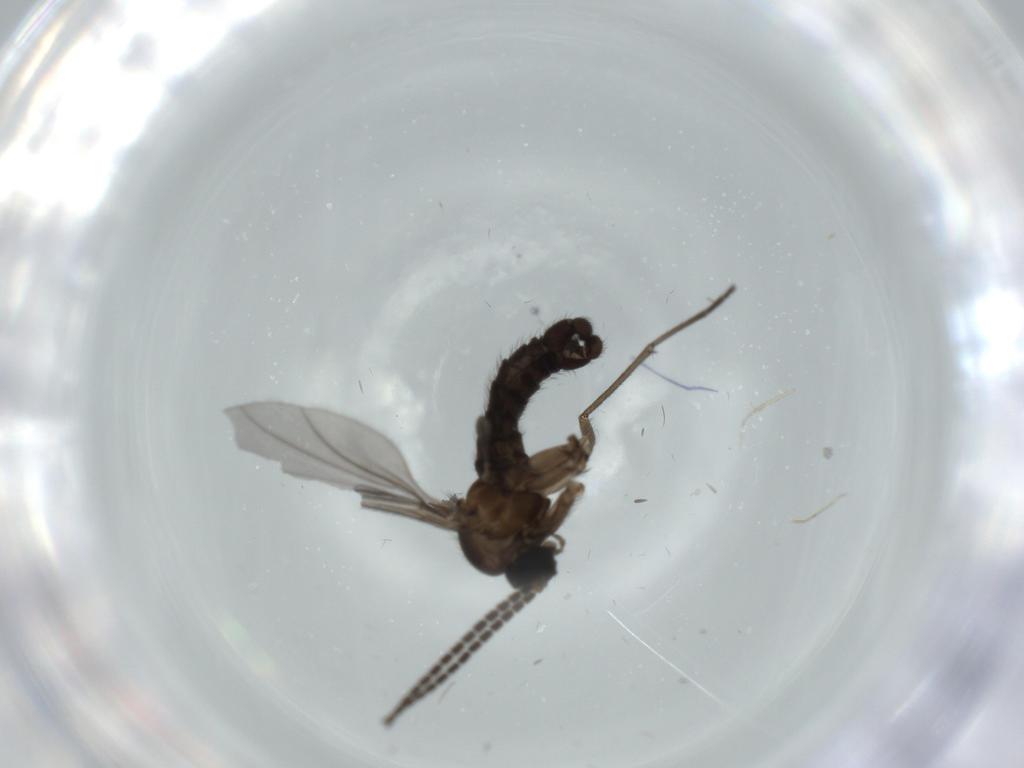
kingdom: Animalia
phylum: Arthropoda
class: Insecta
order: Diptera
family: Sciaridae
